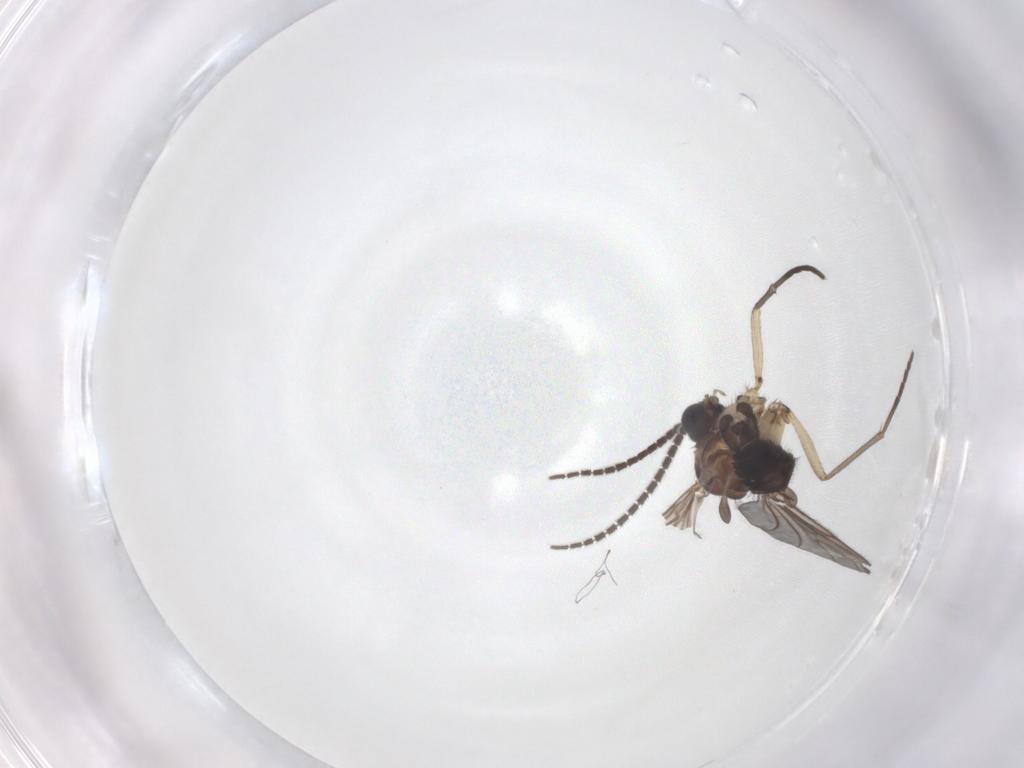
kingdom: Animalia
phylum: Arthropoda
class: Insecta
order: Diptera
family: Sciaridae
